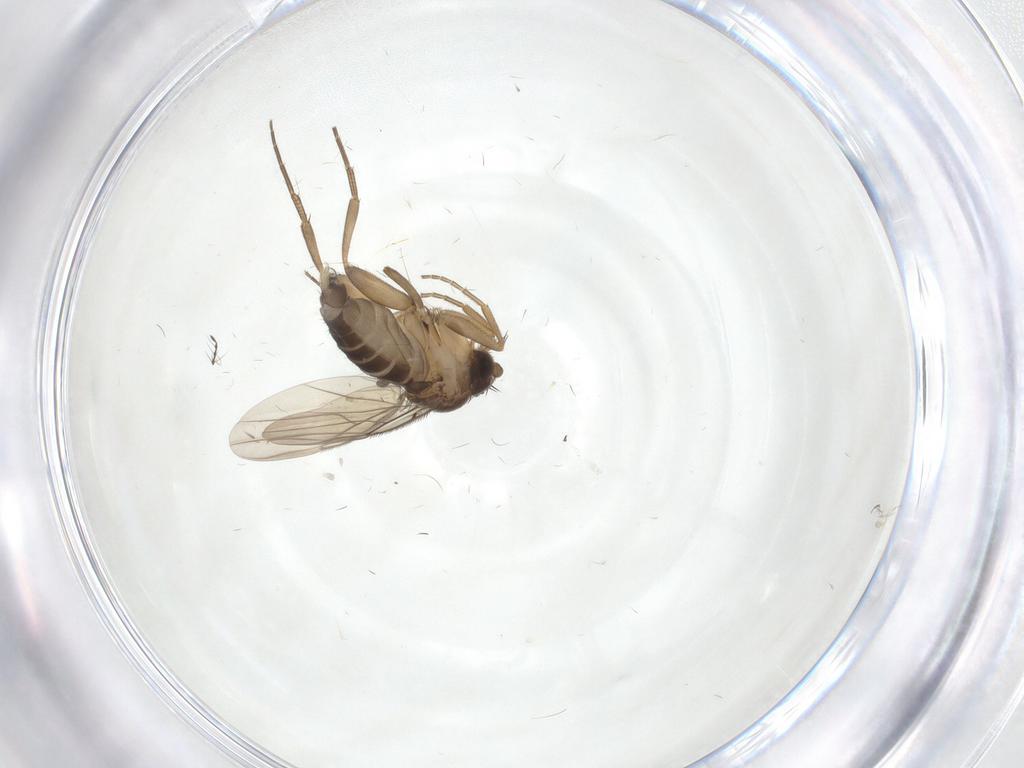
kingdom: Animalia
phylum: Arthropoda
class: Insecta
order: Diptera
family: Phoridae
